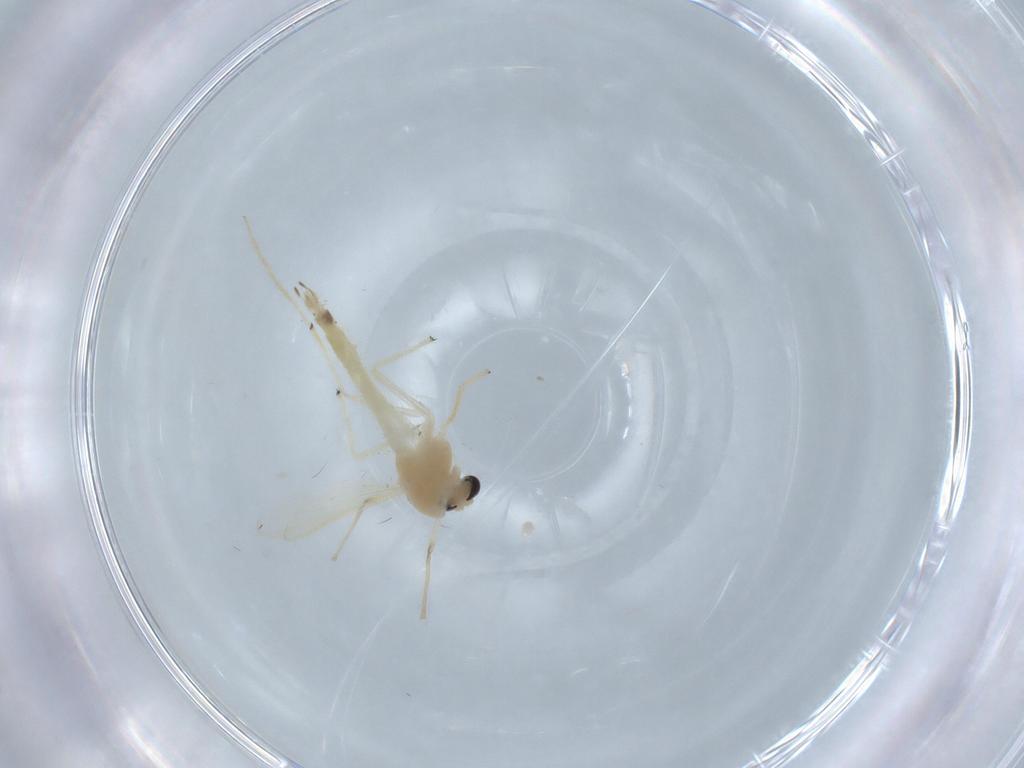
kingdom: Animalia
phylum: Arthropoda
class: Insecta
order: Diptera
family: Chironomidae
